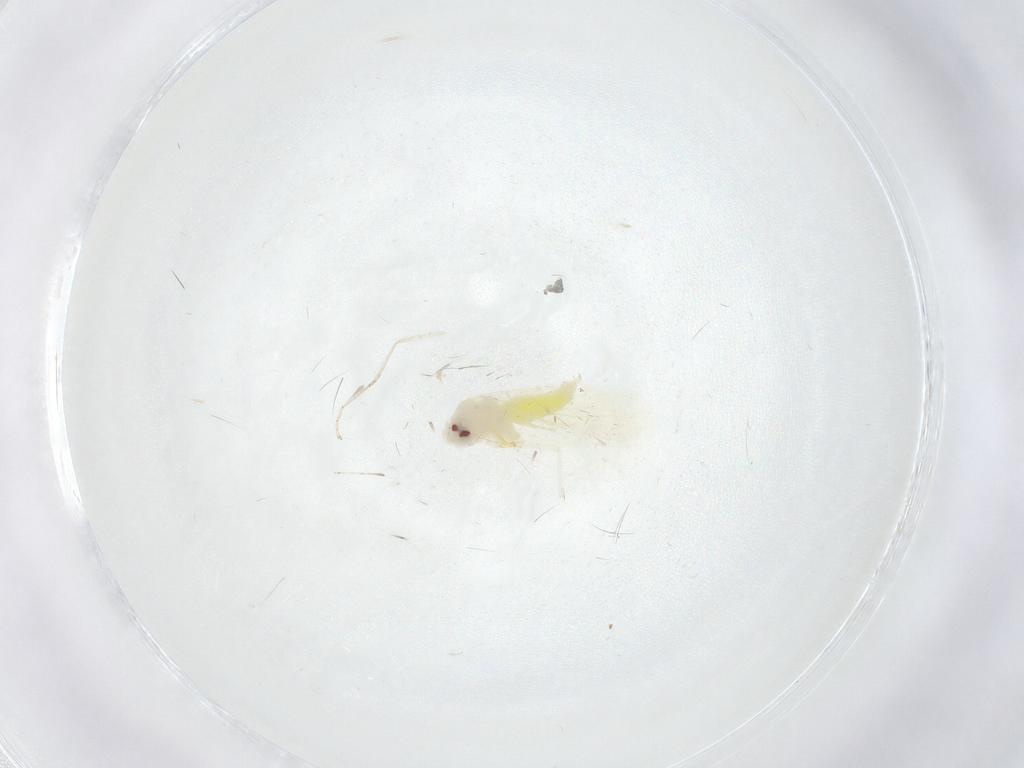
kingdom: Animalia
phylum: Arthropoda
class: Insecta
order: Hemiptera
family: Aleyrodidae
